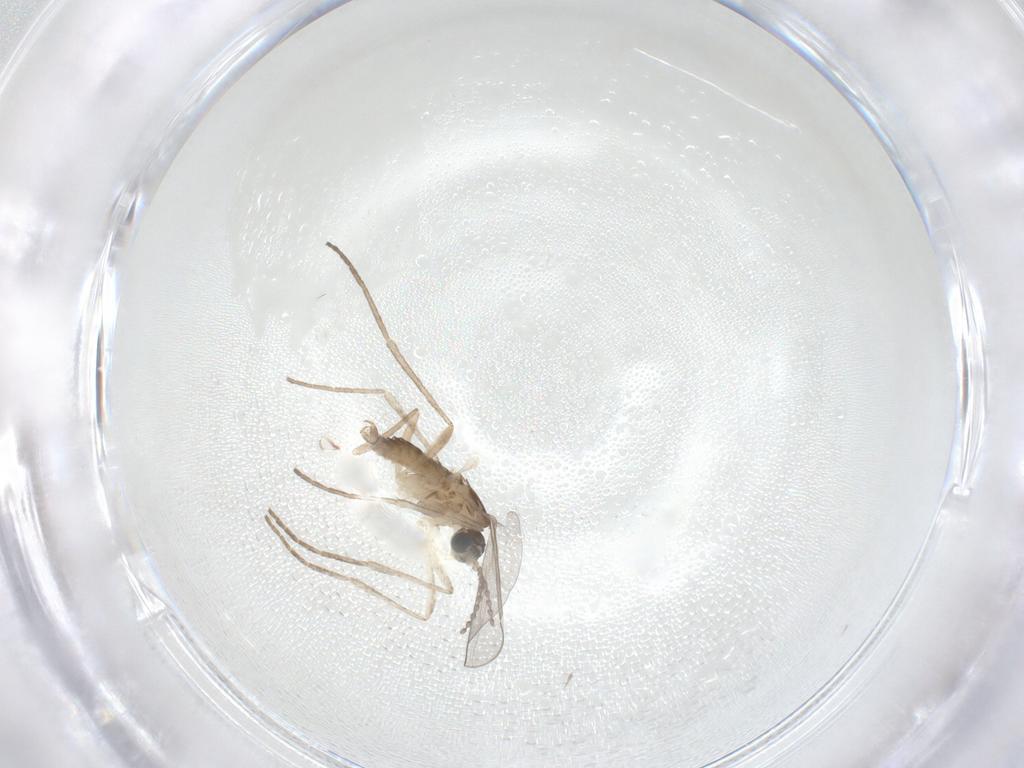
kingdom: Animalia
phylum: Arthropoda
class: Insecta
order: Diptera
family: Cecidomyiidae
